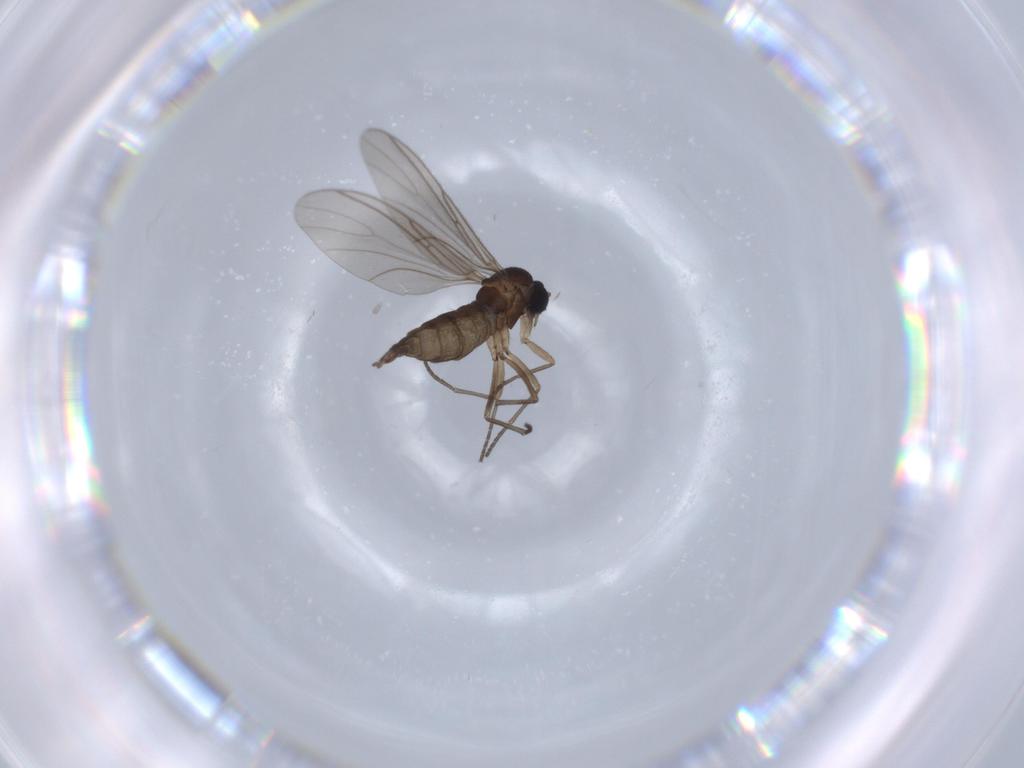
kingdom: Animalia
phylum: Arthropoda
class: Insecta
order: Diptera
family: Sciaridae
